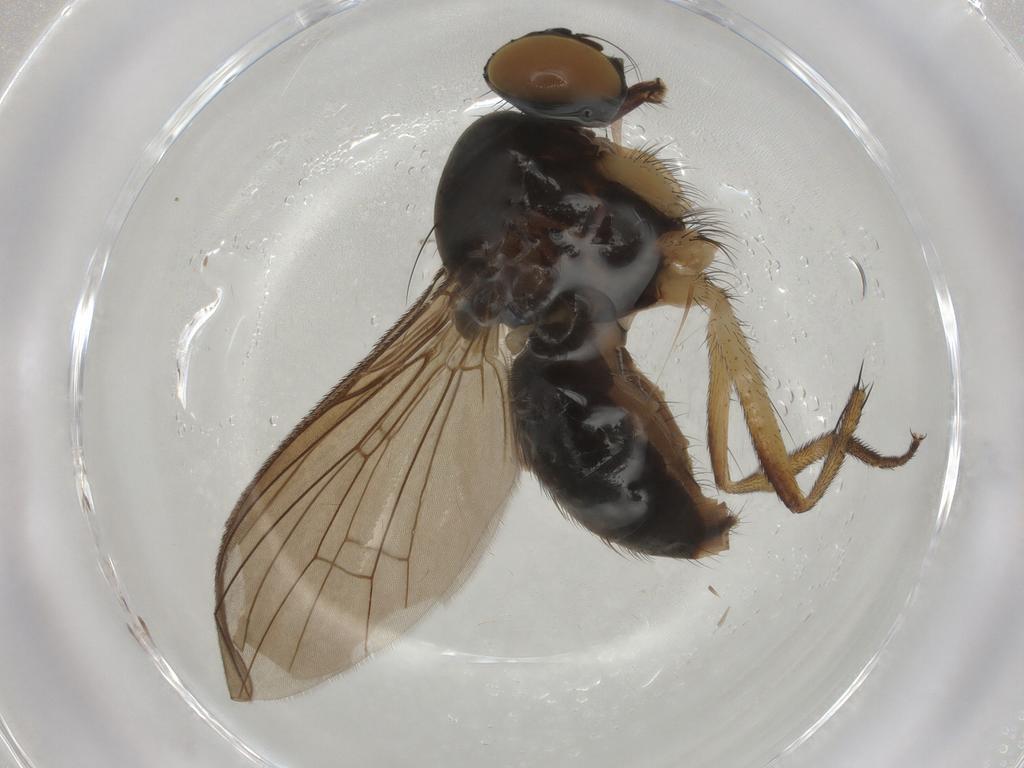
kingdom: Animalia
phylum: Arthropoda
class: Insecta
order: Diptera
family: Muscidae
